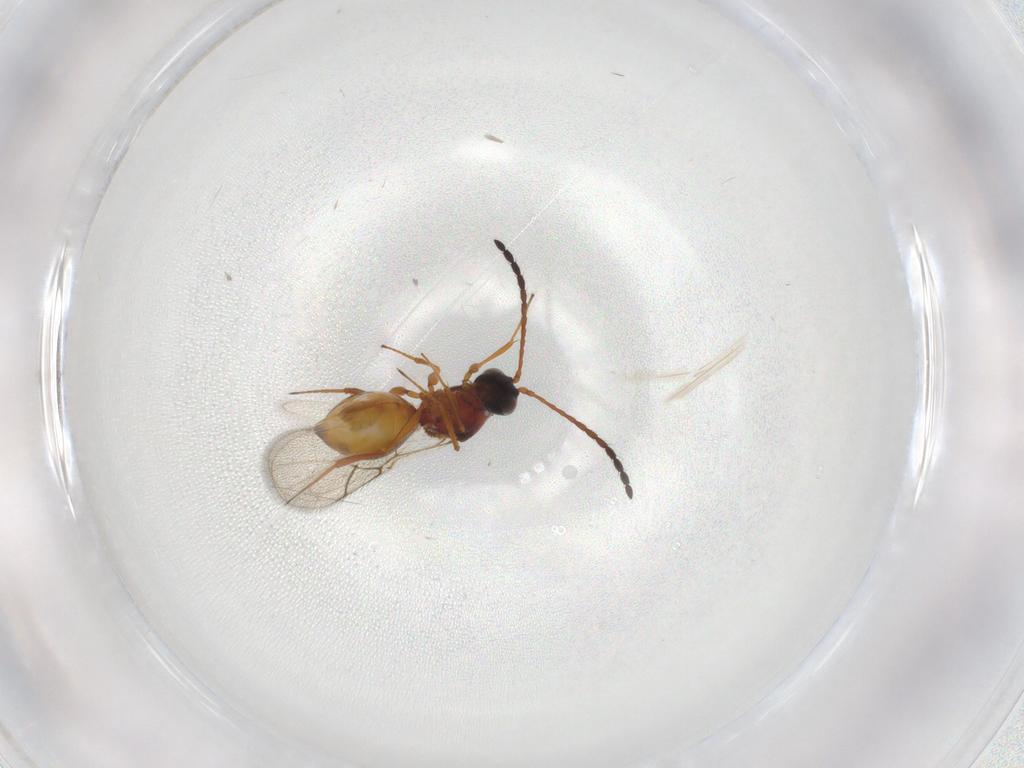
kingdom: Animalia
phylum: Arthropoda
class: Insecta
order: Hymenoptera
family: Figitidae
